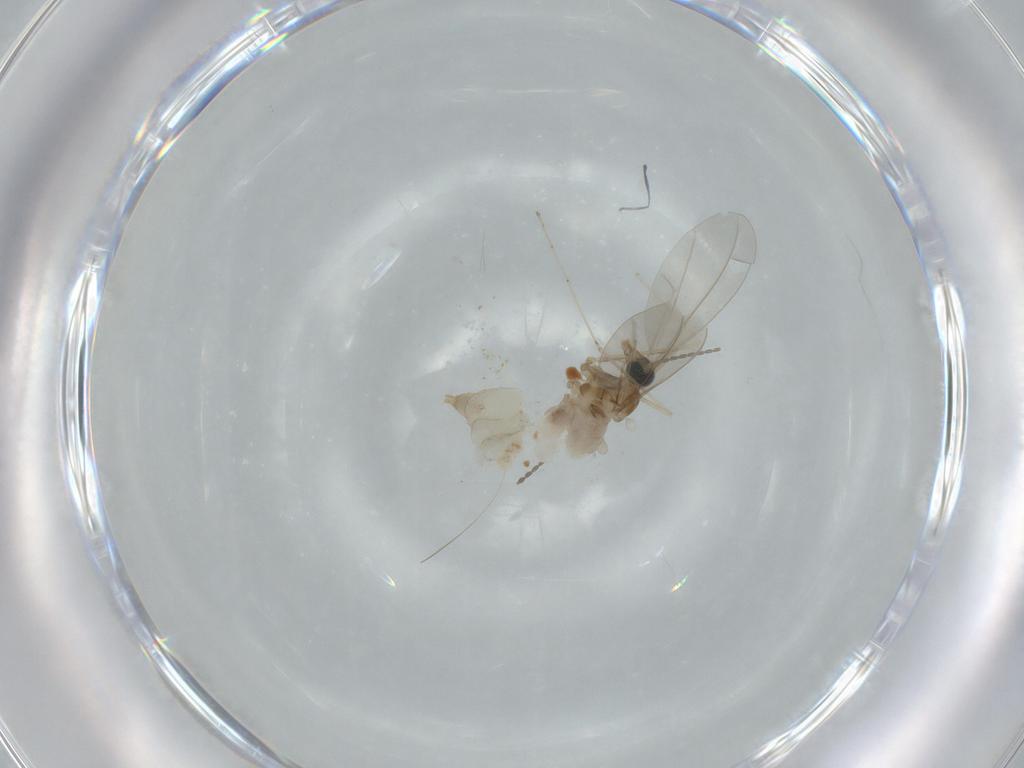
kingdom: Animalia
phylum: Arthropoda
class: Insecta
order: Diptera
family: Cecidomyiidae
